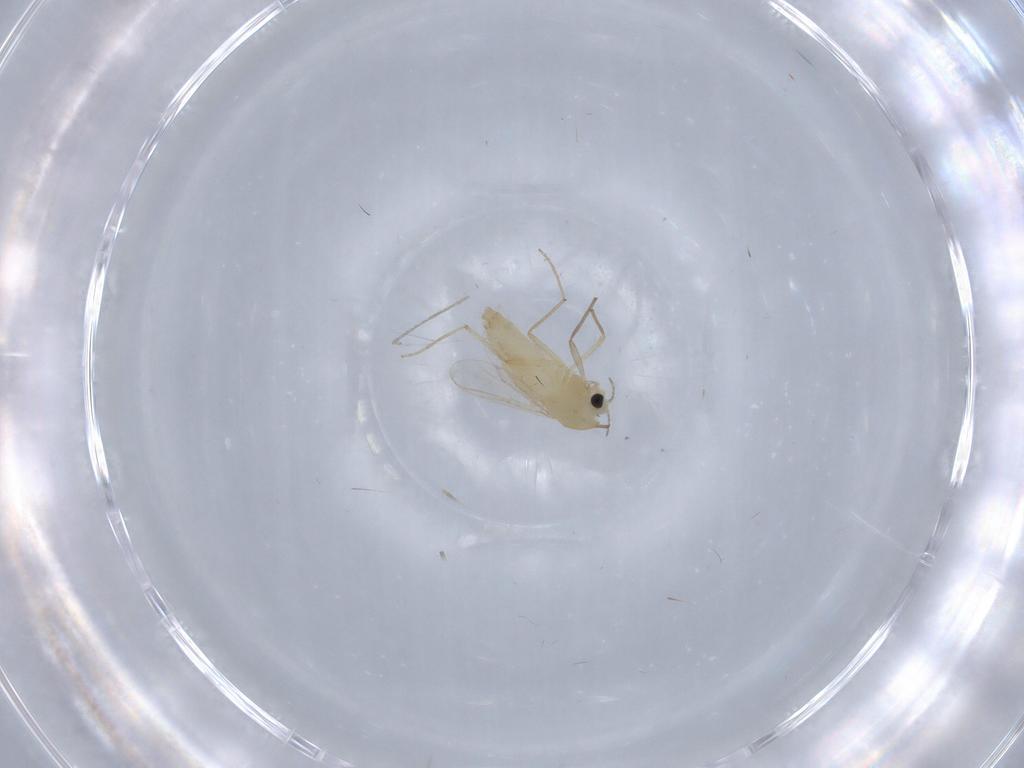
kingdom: Animalia
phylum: Arthropoda
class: Insecta
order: Diptera
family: Chironomidae
